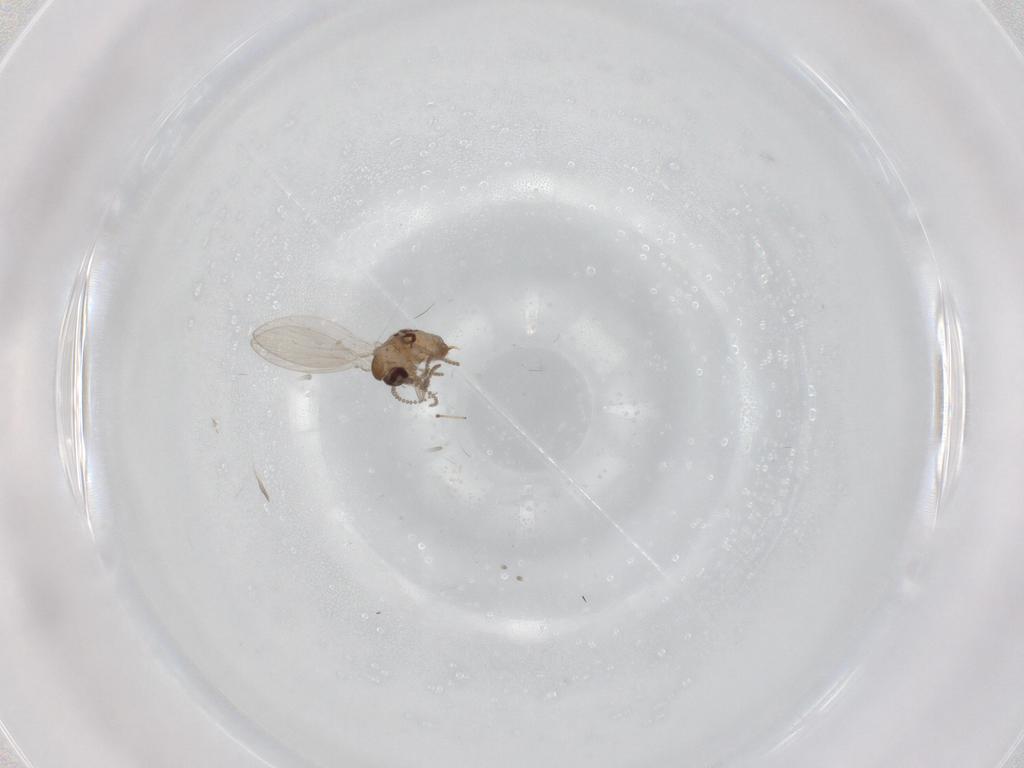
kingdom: Animalia
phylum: Arthropoda
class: Insecta
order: Diptera
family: Psychodidae
